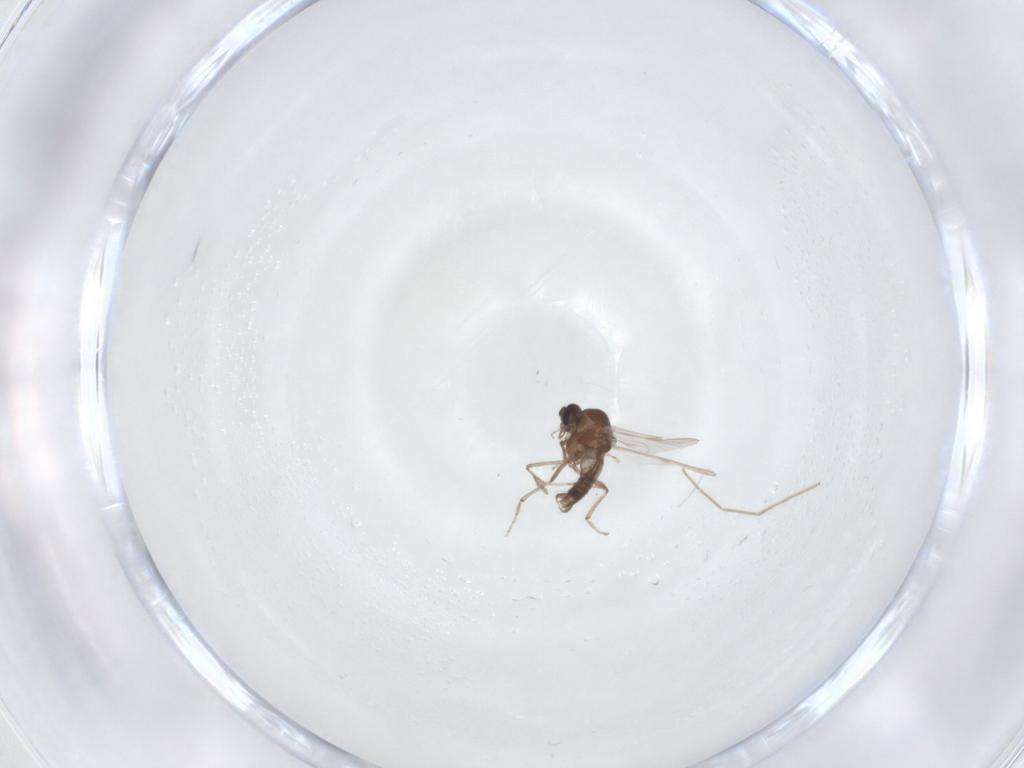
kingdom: Animalia
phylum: Arthropoda
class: Insecta
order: Diptera
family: Ceratopogonidae
